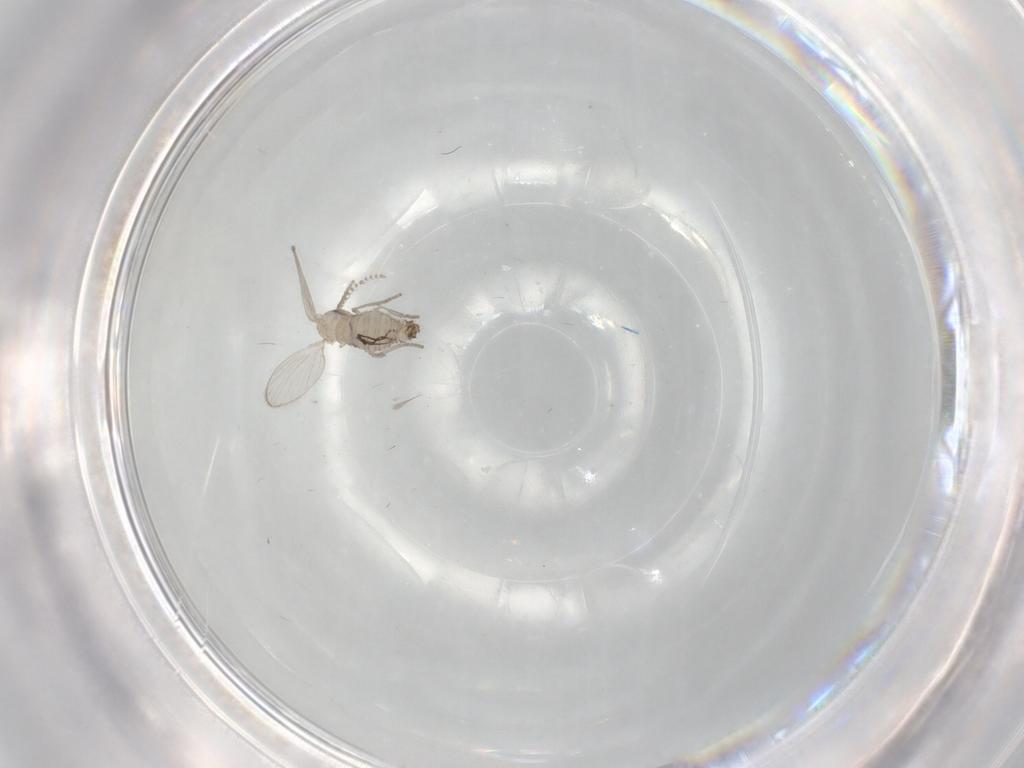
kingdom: Animalia
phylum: Arthropoda
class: Insecta
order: Diptera
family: Psychodidae
